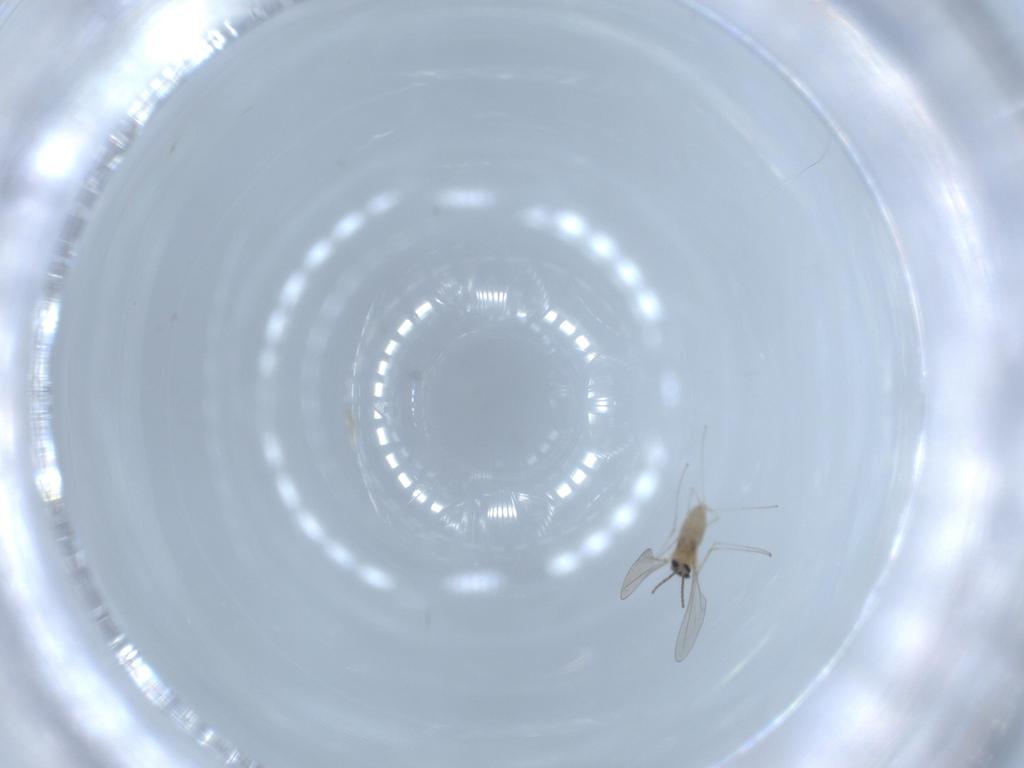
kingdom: Animalia
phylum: Arthropoda
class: Insecta
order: Diptera
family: Cecidomyiidae
